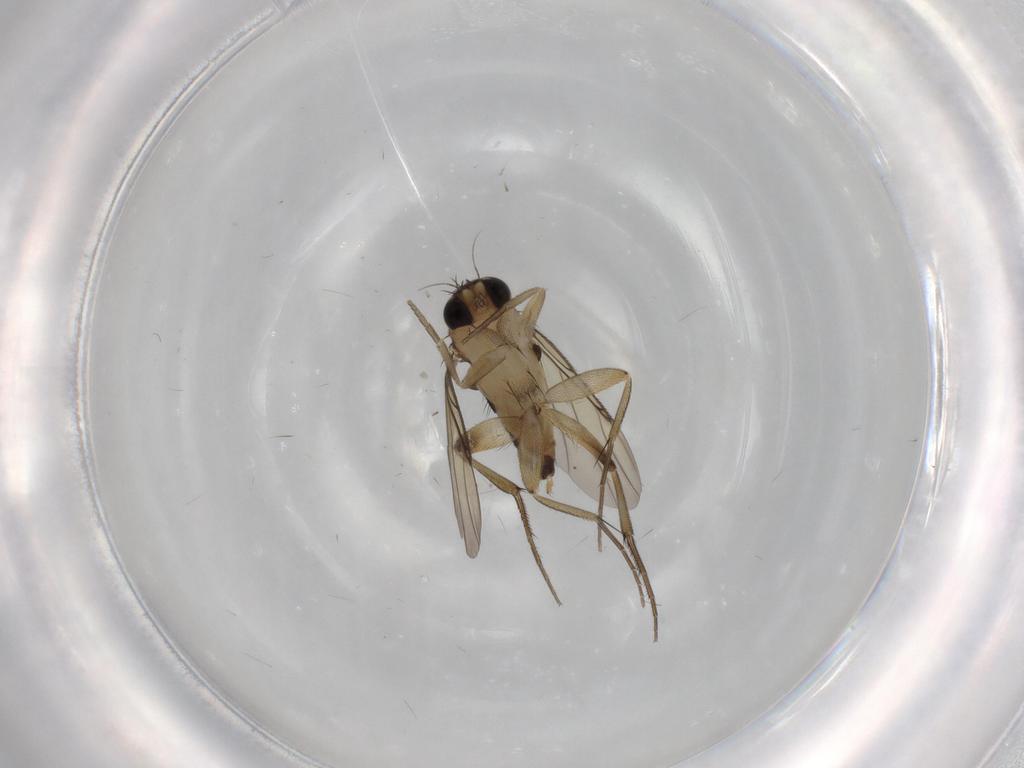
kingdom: Animalia
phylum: Arthropoda
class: Insecta
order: Diptera
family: Phoridae
